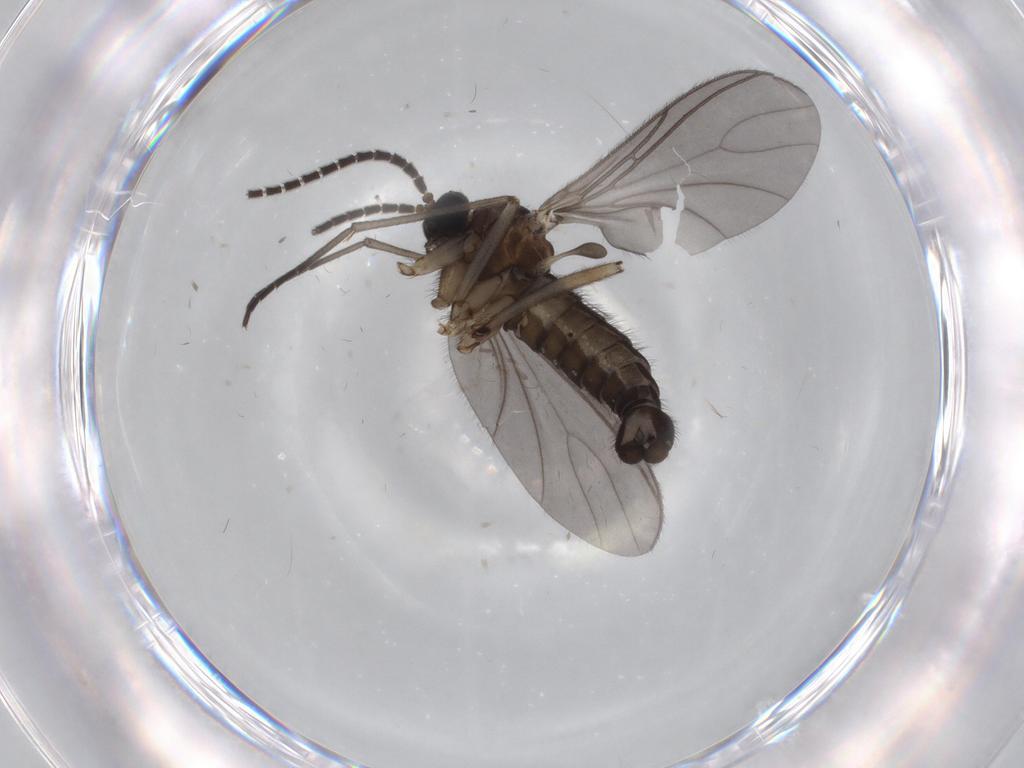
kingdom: Animalia
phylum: Arthropoda
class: Insecta
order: Diptera
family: Sciaridae
